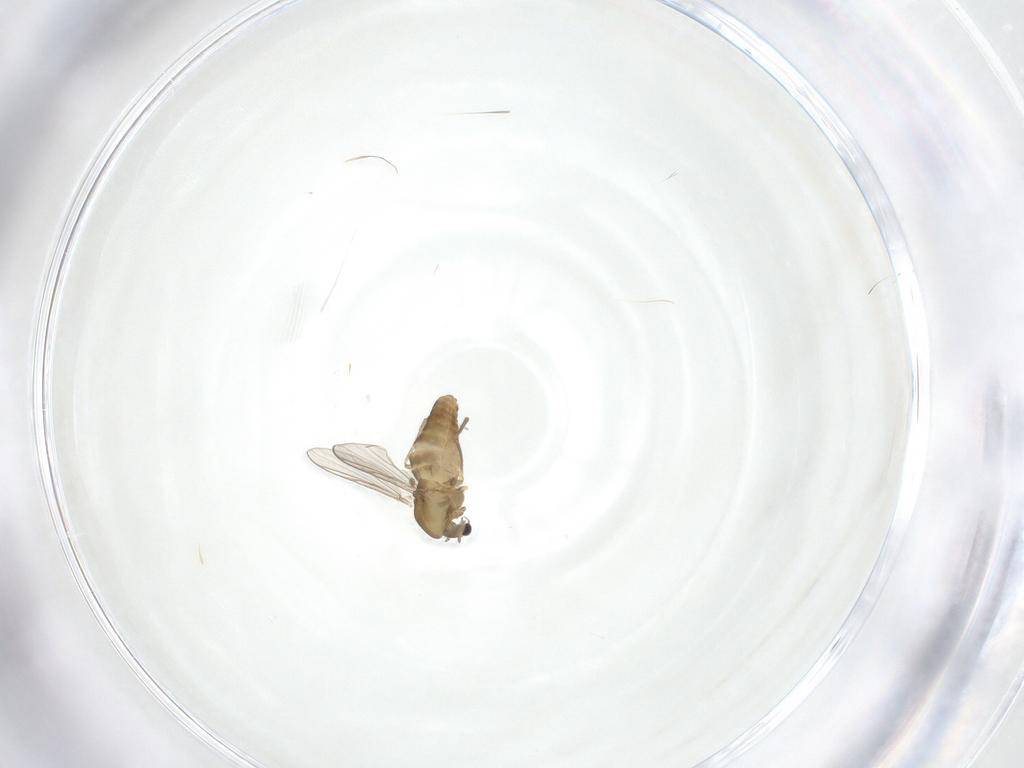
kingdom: Animalia
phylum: Arthropoda
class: Insecta
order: Diptera
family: Chironomidae
